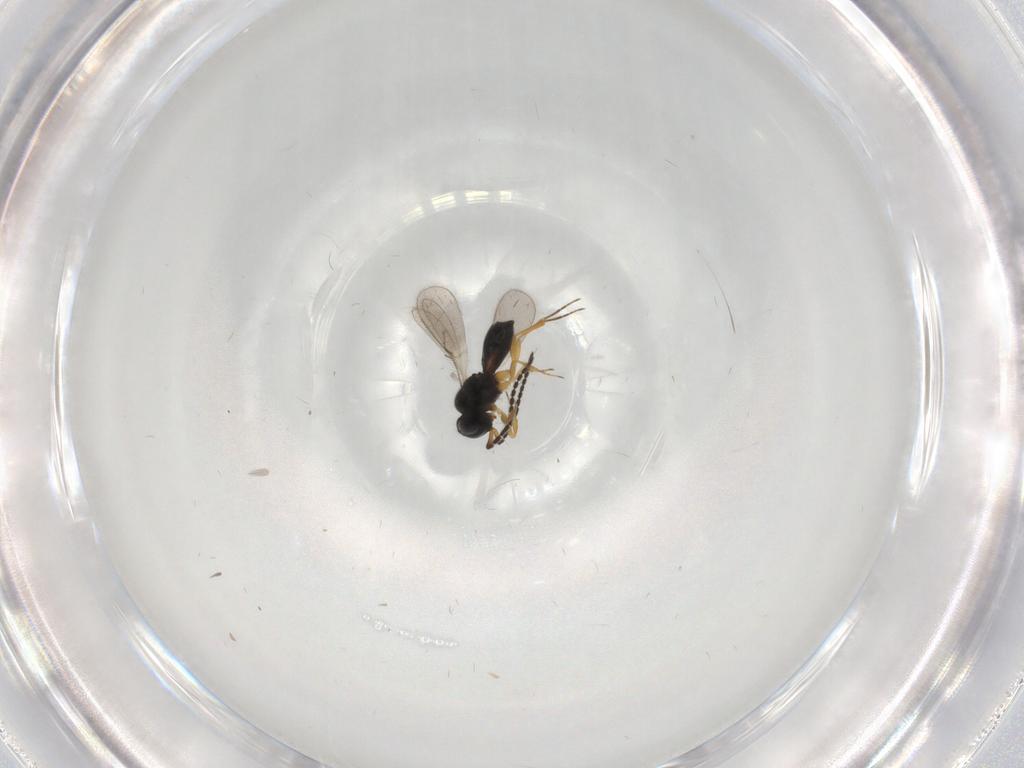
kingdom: Animalia
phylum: Arthropoda
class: Insecta
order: Hymenoptera
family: Scelionidae
